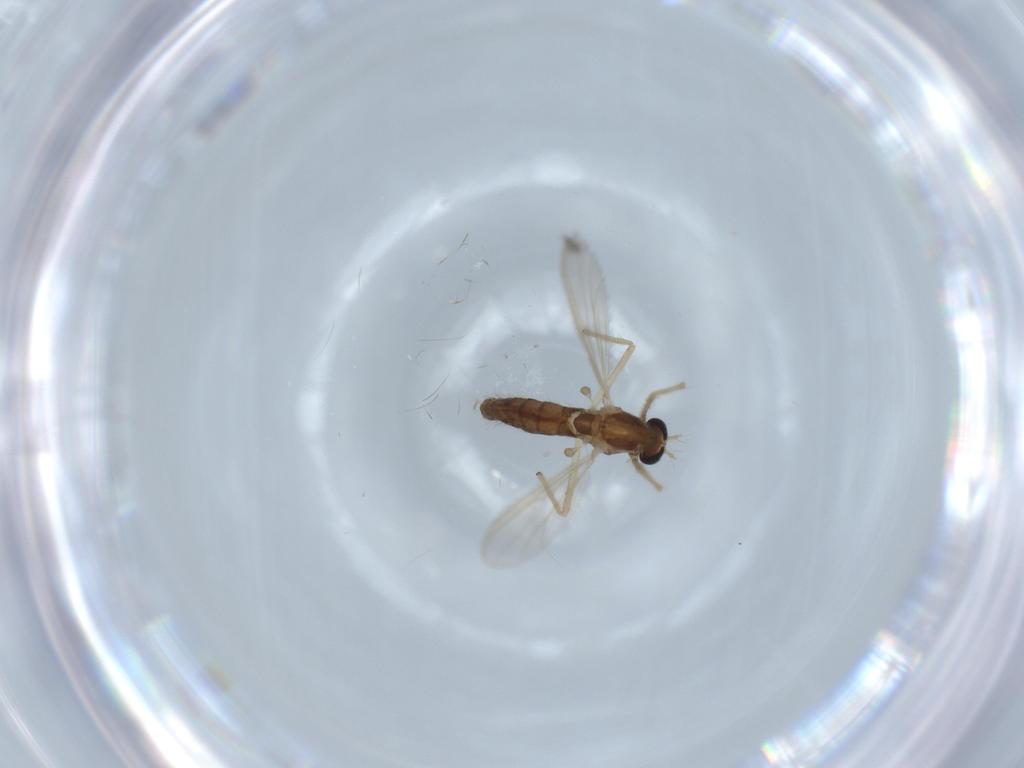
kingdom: Animalia
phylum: Arthropoda
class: Insecta
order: Diptera
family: Chironomidae
